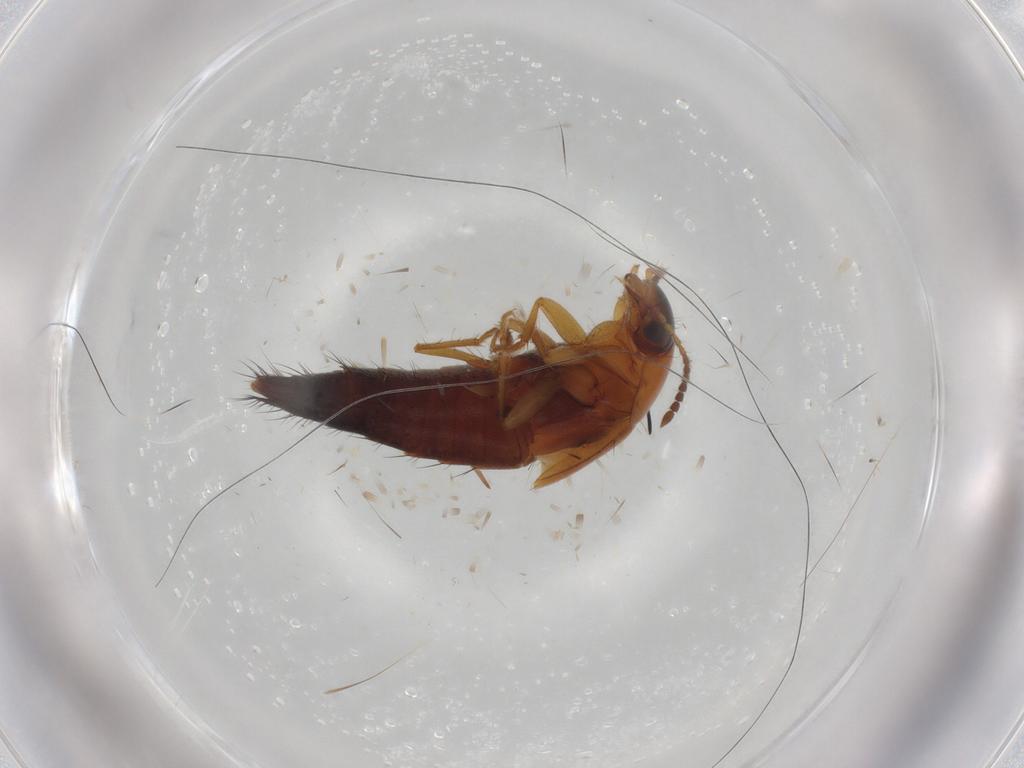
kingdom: Animalia
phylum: Arthropoda
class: Insecta
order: Coleoptera
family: Staphylinidae
